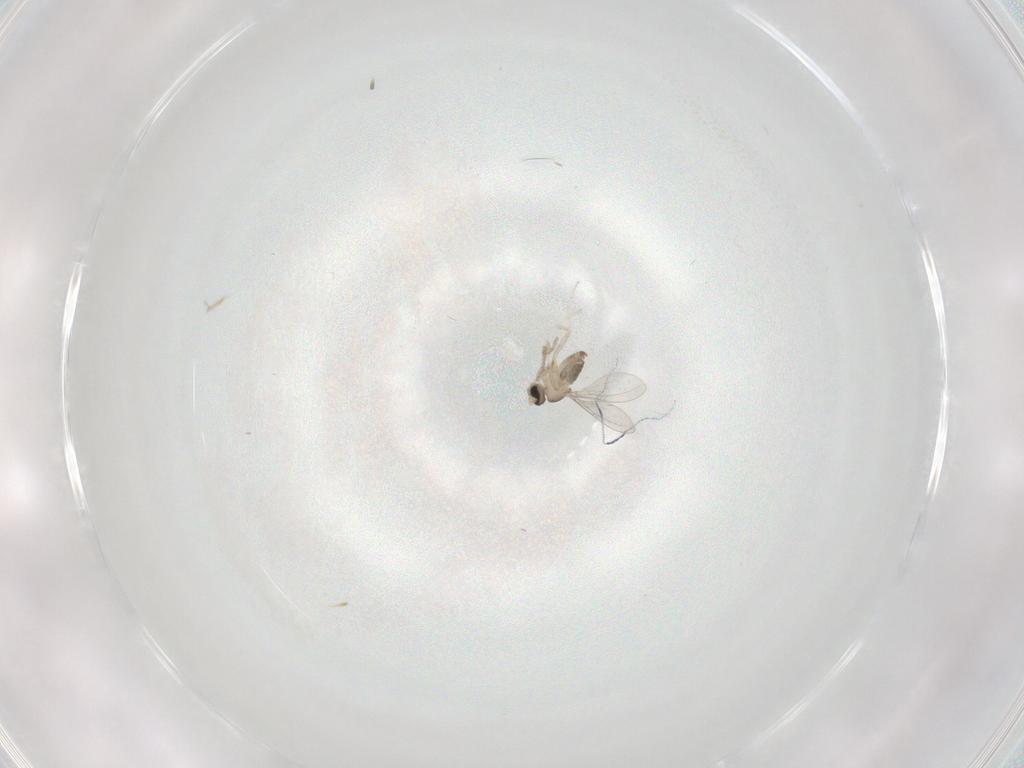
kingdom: Animalia
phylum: Arthropoda
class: Insecta
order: Diptera
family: Cecidomyiidae
